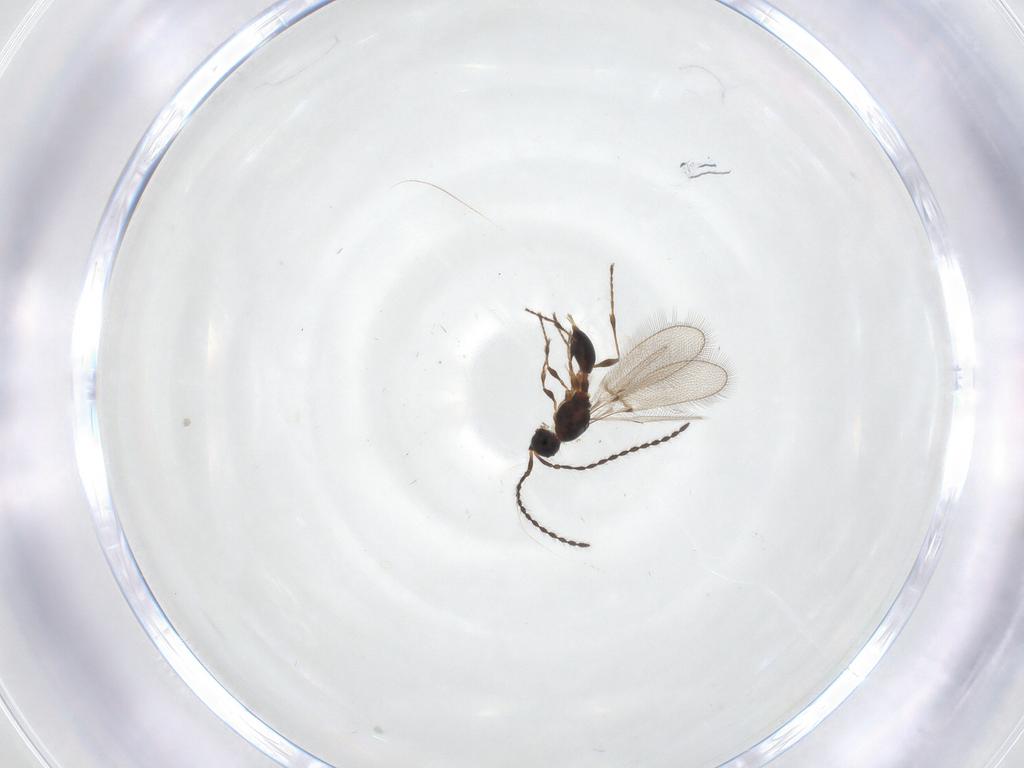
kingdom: Animalia
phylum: Arthropoda
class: Insecta
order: Hymenoptera
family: Diapriidae
